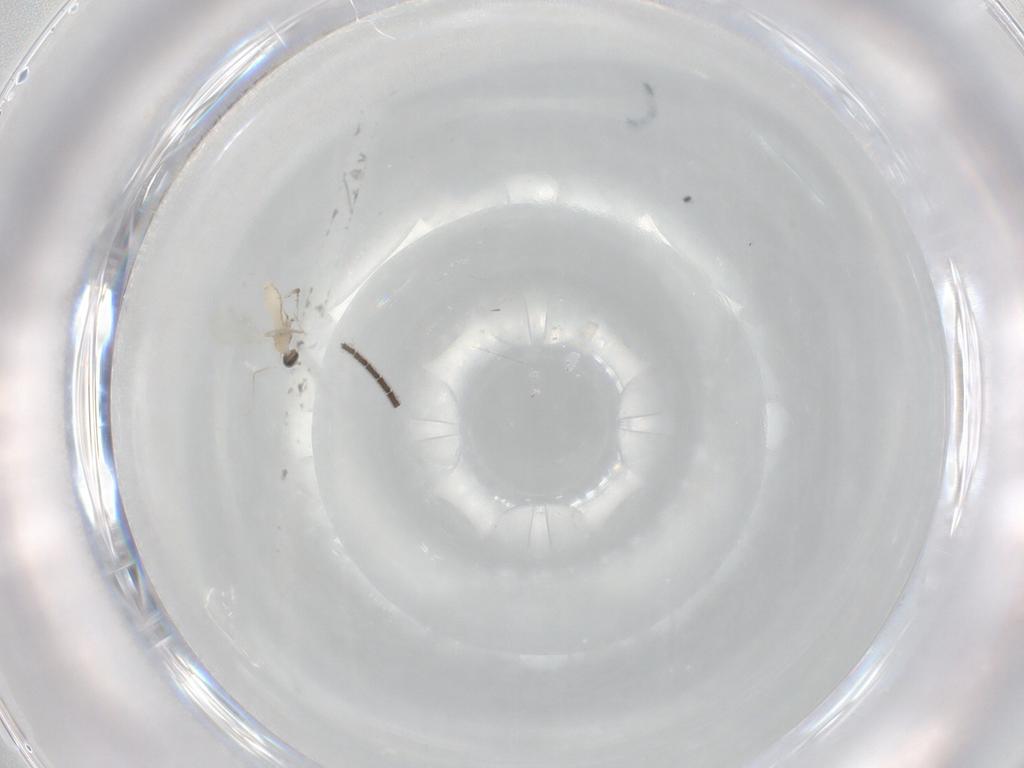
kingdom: Animalia
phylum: Arthropoda
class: Insecta
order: Diptera
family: Cecidomyiidae
